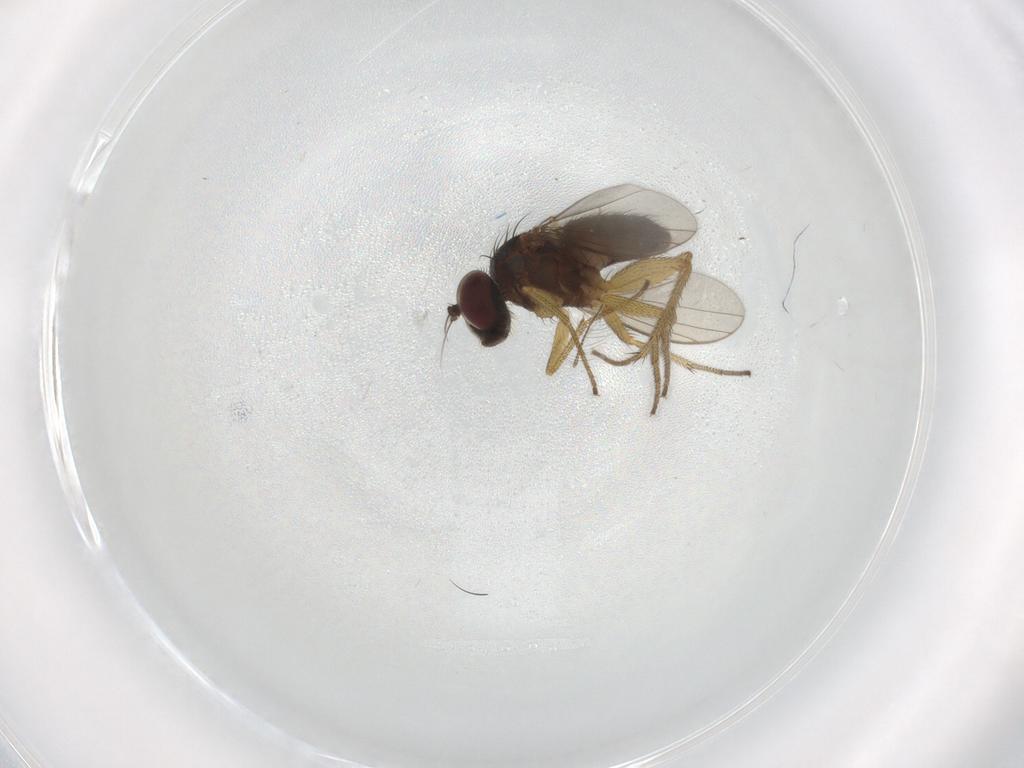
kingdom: Animalia
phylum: Arthropoda
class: Insecta
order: Diptera
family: Dolichopodidae
